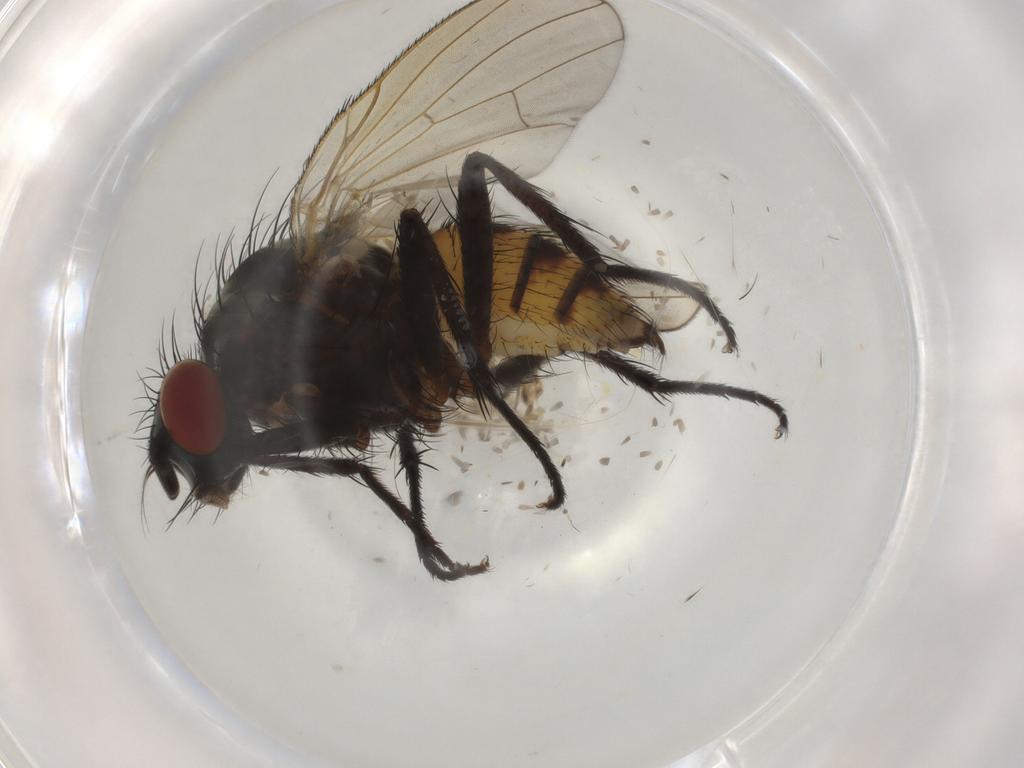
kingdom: Animalia
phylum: Arthropoda
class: Insecta
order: Diptera
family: Anthomyiidae
